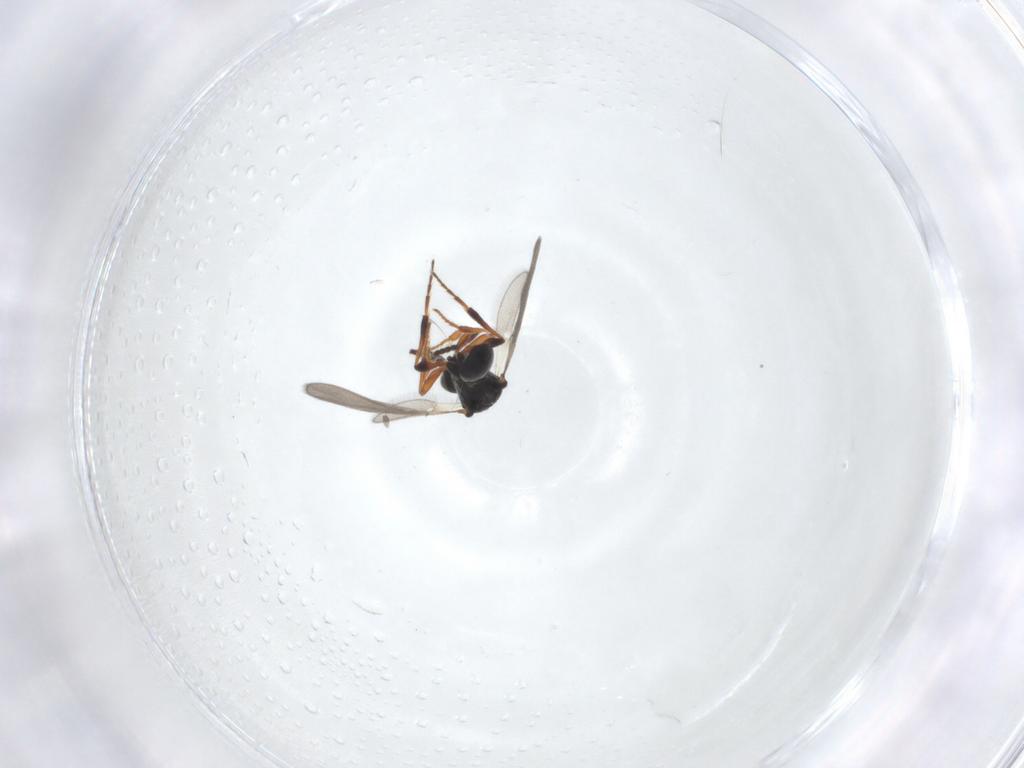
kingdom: Animalia
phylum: Arthropoda
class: Insecta
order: Hymenoptera
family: Platygastridae
